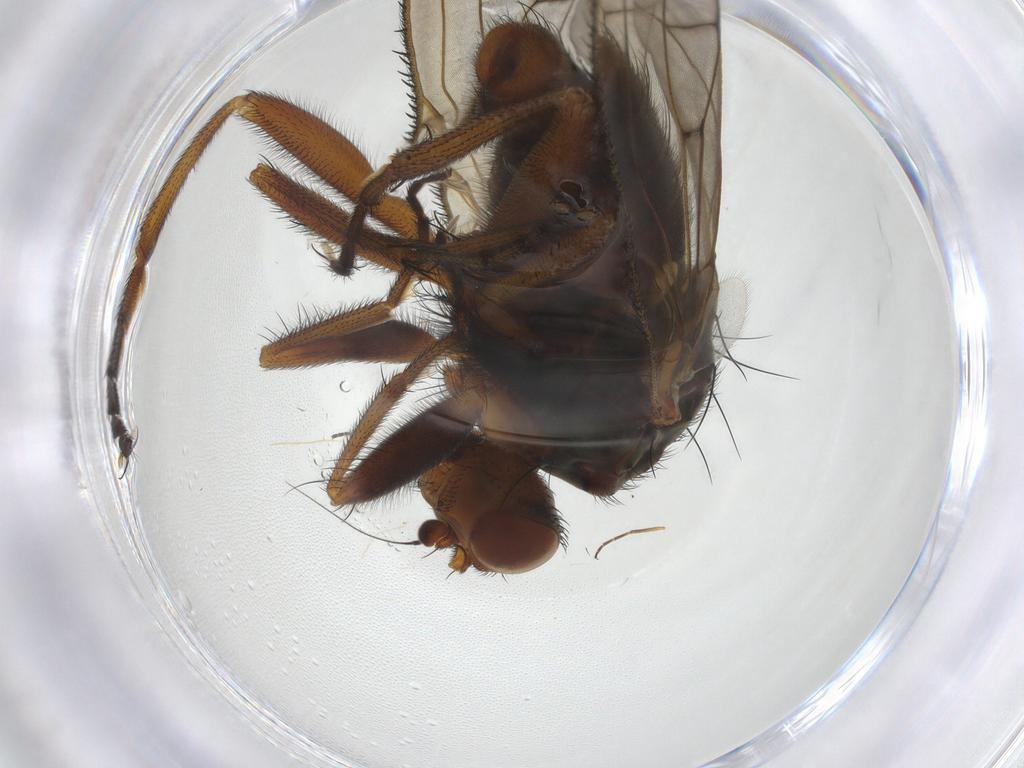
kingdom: Animalia
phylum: Arthropoda
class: Insecta
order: Diptera
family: Heleomyzidae
